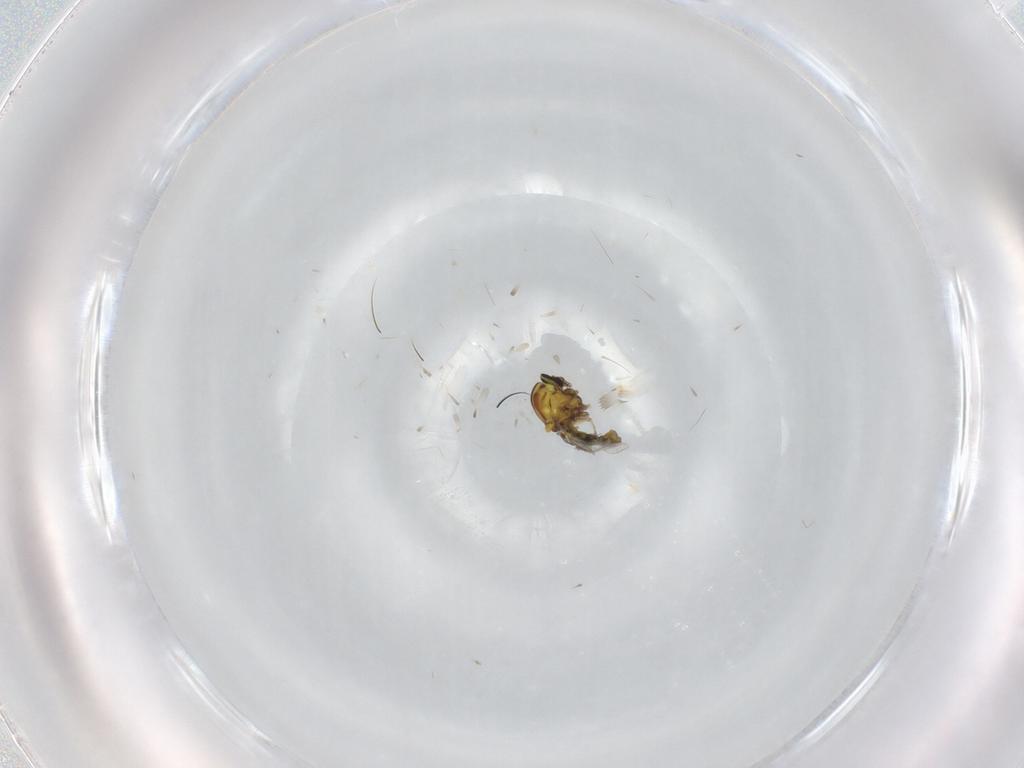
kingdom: Animalia
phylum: Arthropoda
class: Insecta
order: Diptera
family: Ceratopogonidae
